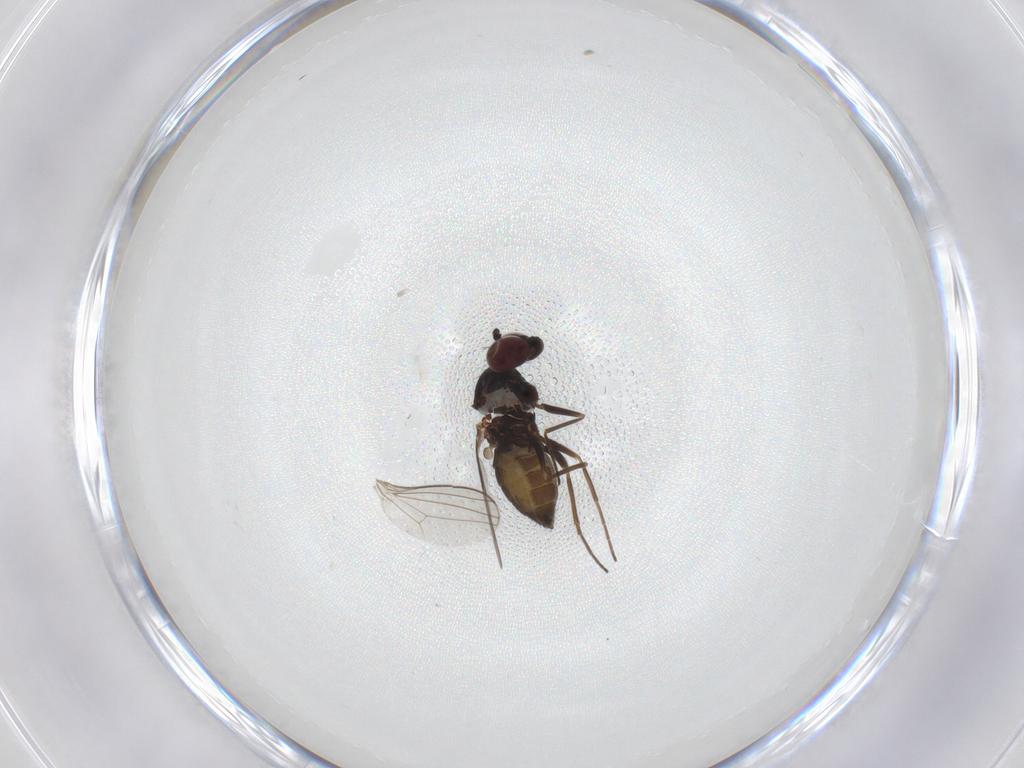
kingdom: Animalia
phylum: Arthropoda
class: Insecta
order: Diptera
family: Dolichopodidae
